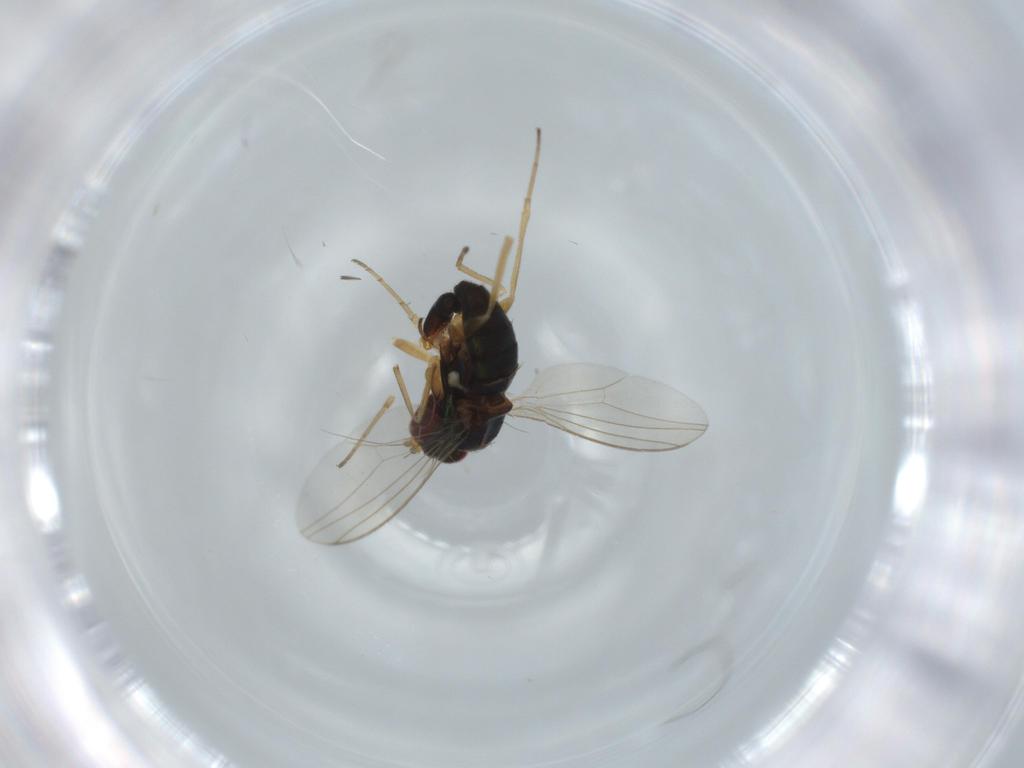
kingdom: Animalia
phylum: Arthropoda
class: Insecta
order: Diptera
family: Dolichopodidae
